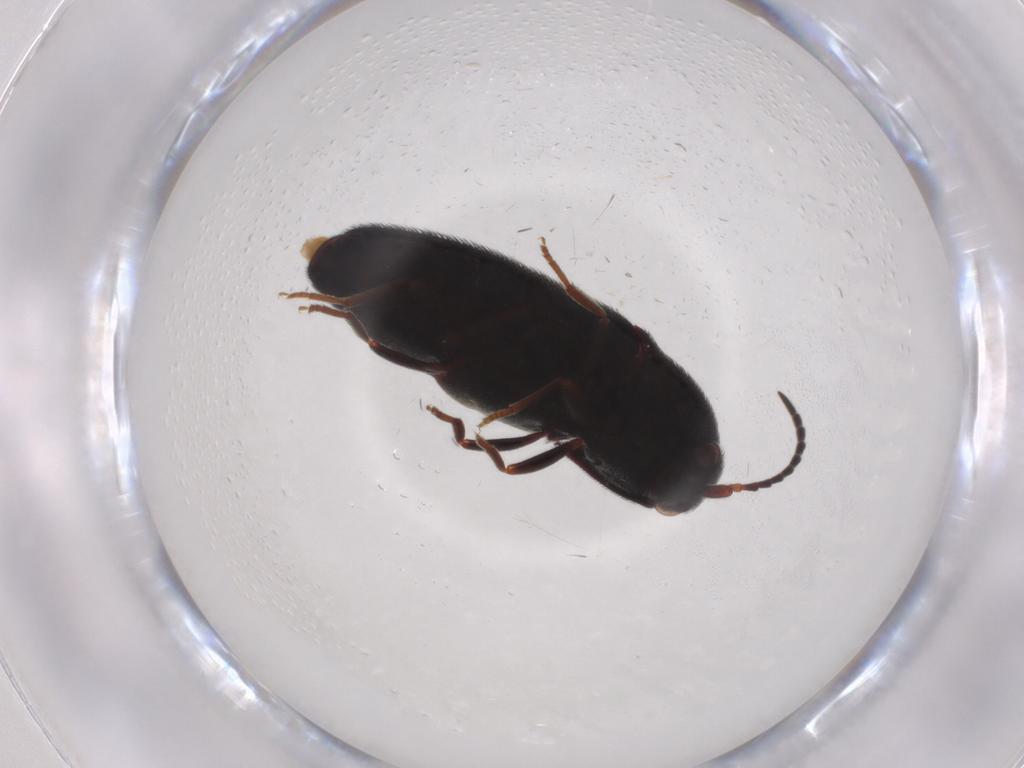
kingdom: Animalia
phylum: Arthropoda
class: Insecta
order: Coleoptera
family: Eucnemidae
